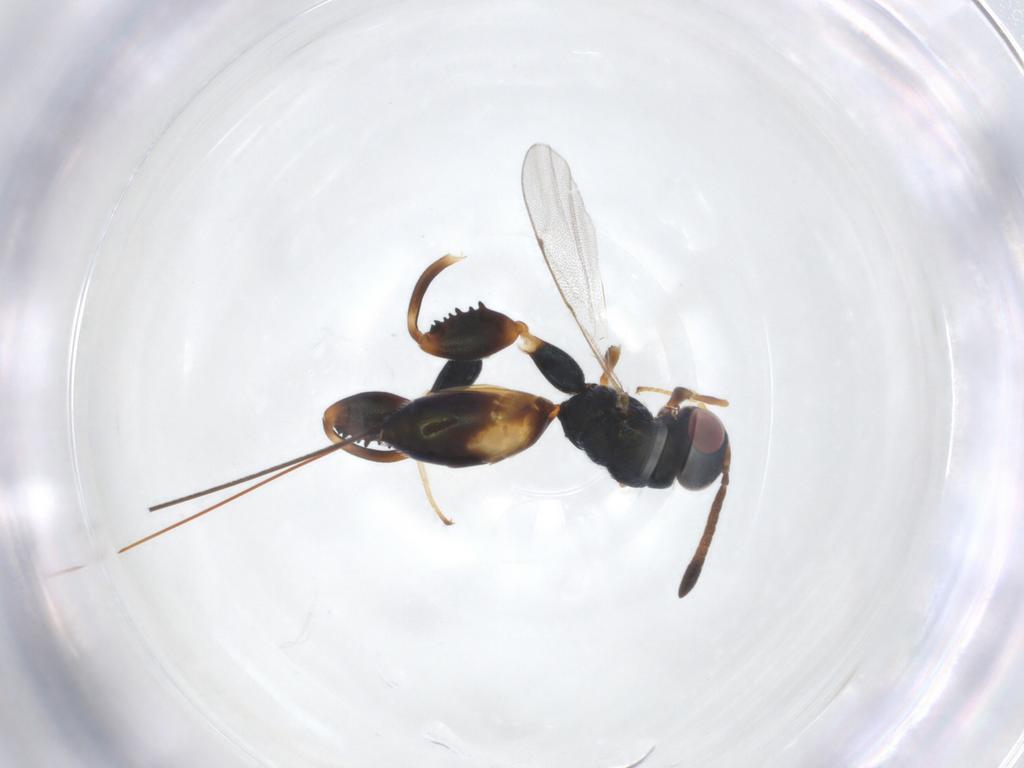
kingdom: Animalia
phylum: Arthropoda
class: Insecta
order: Hymenoptera
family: Torymidae
